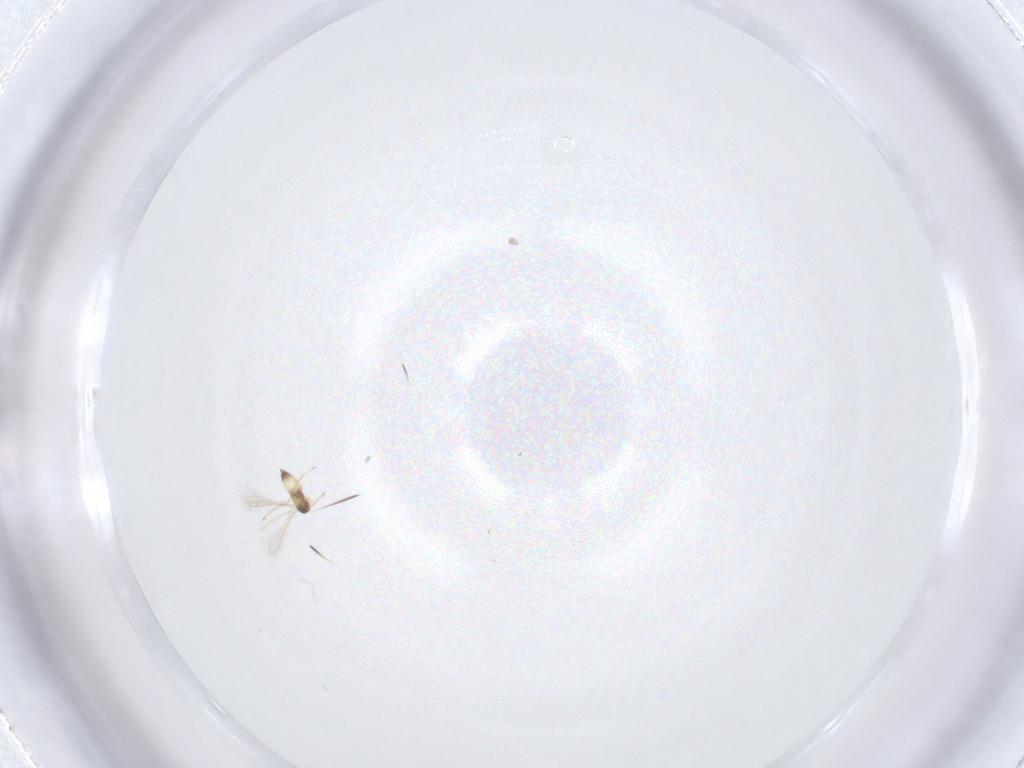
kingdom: Animalia
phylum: Arthropoda
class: Insecta
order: Hymenoptera
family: Mymaridae
